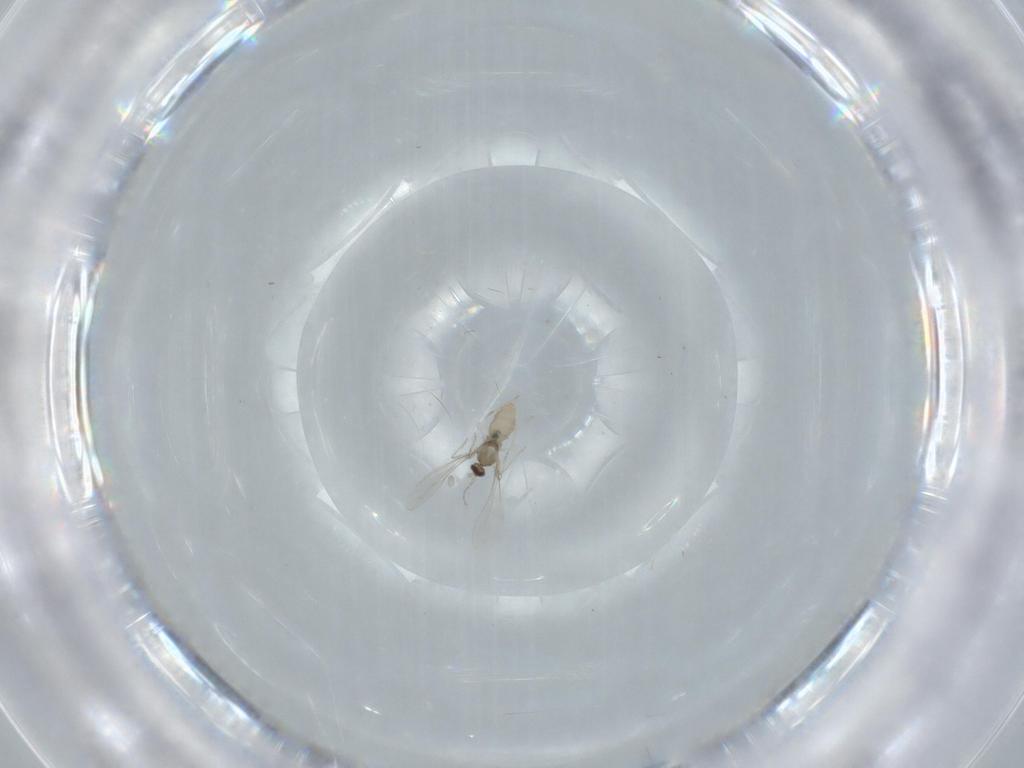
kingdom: Animalia
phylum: Arthropoda
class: Insecta
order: Diptera
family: Cecidomyiidae
